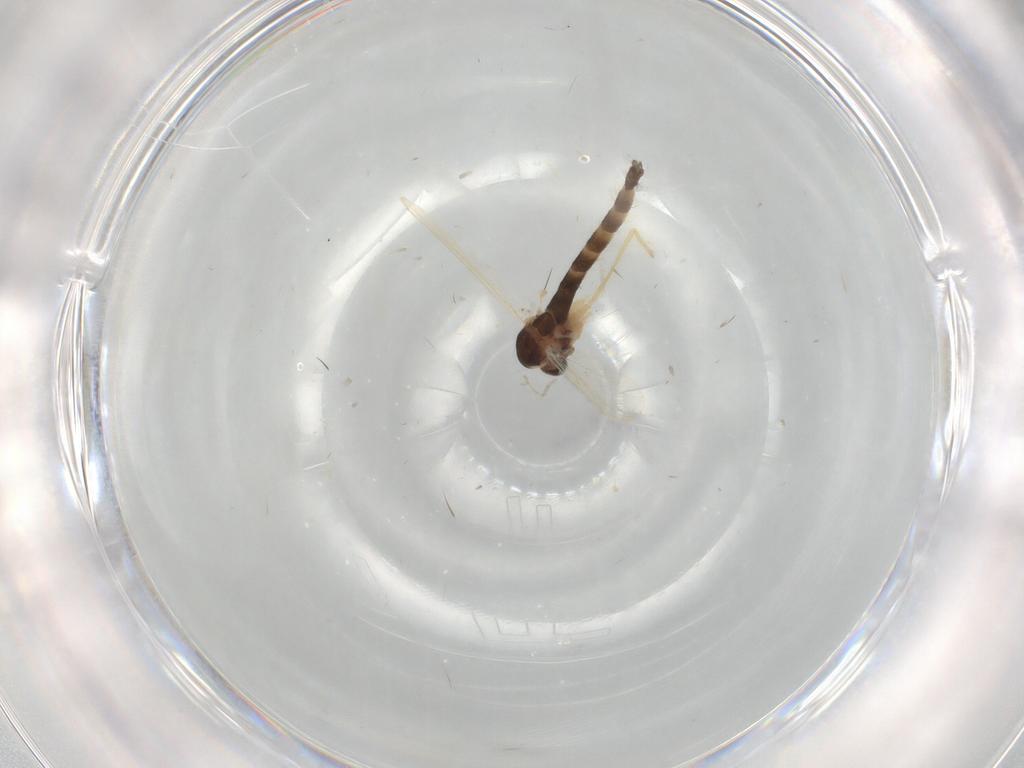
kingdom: Animalia
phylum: Arthropoda
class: Insecta
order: Diptera
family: Chironomidae
